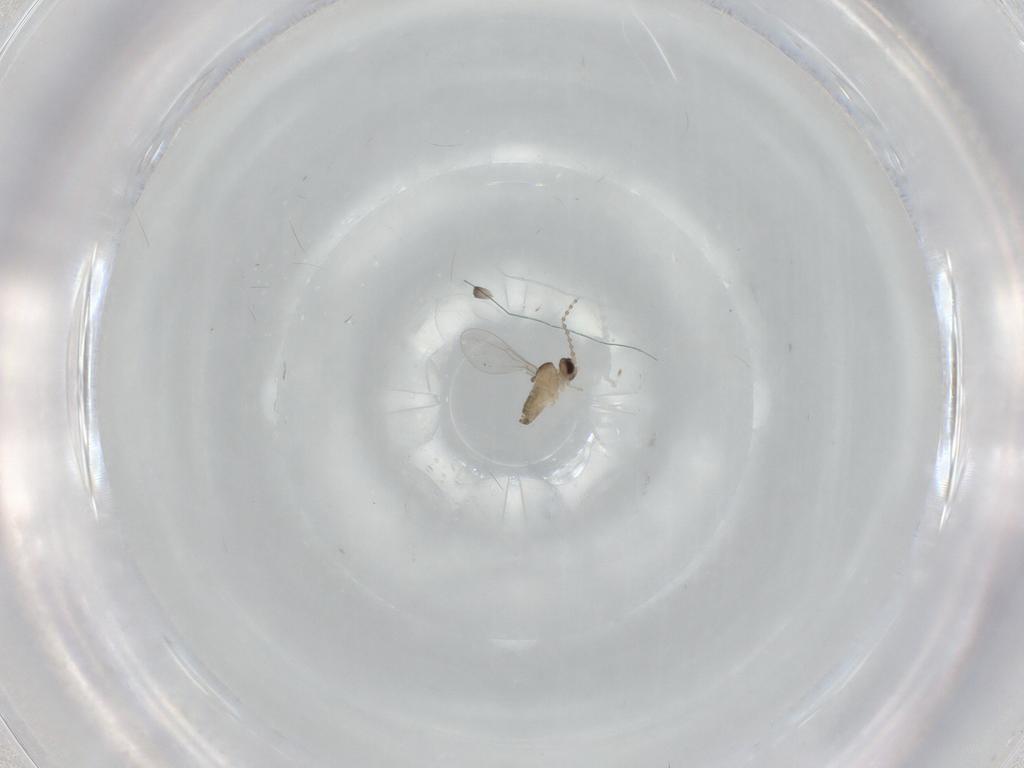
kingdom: Animalia
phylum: Arthropoda
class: Insecta
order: Diptera
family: Cecidomyiidae
